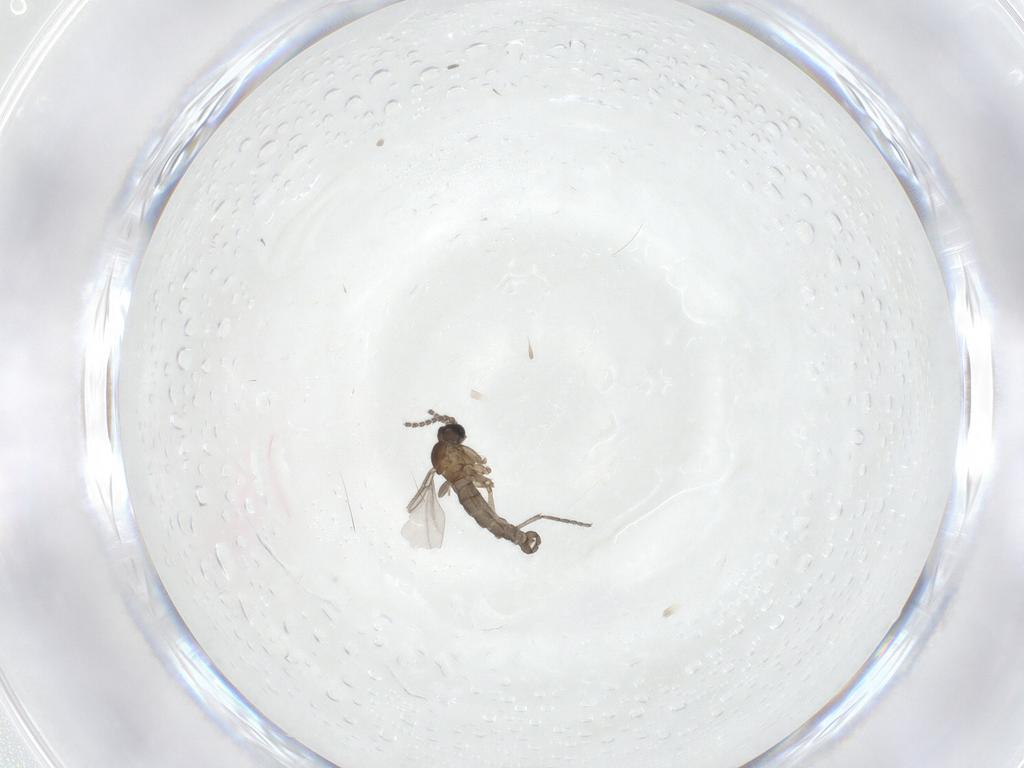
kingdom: Animalia
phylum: Arthropoda
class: Insecta
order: Diptera
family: Sciaridae
